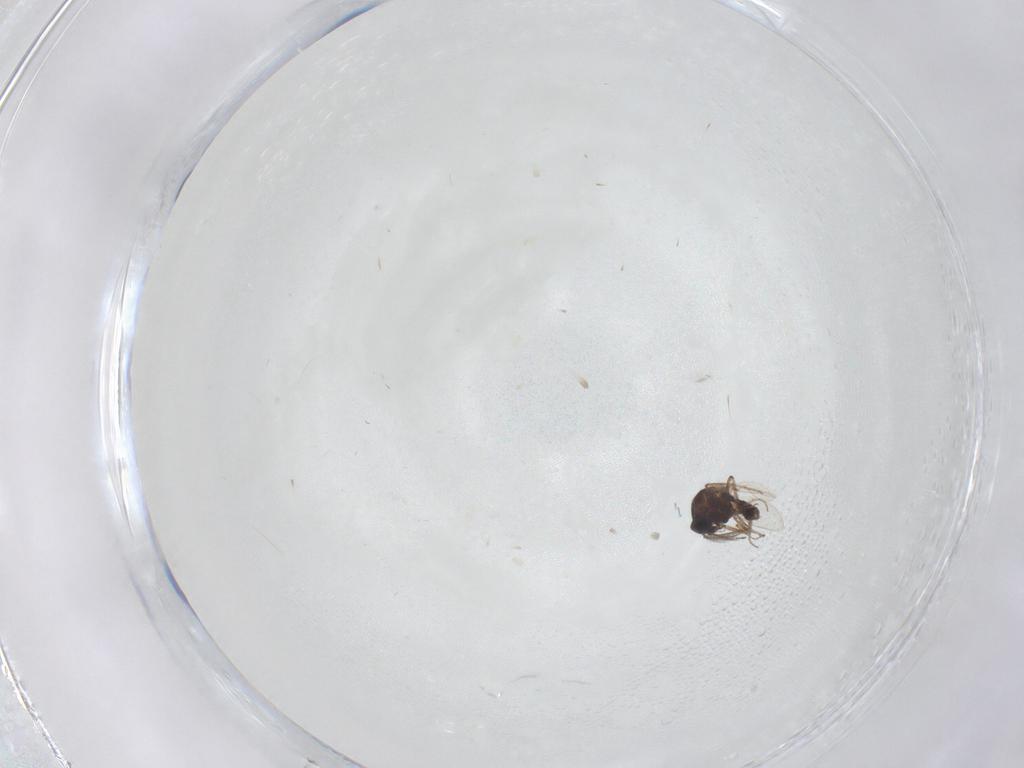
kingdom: Animalia
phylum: Arthropoda
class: Insecta
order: Diptera
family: Ceratopogonidae
